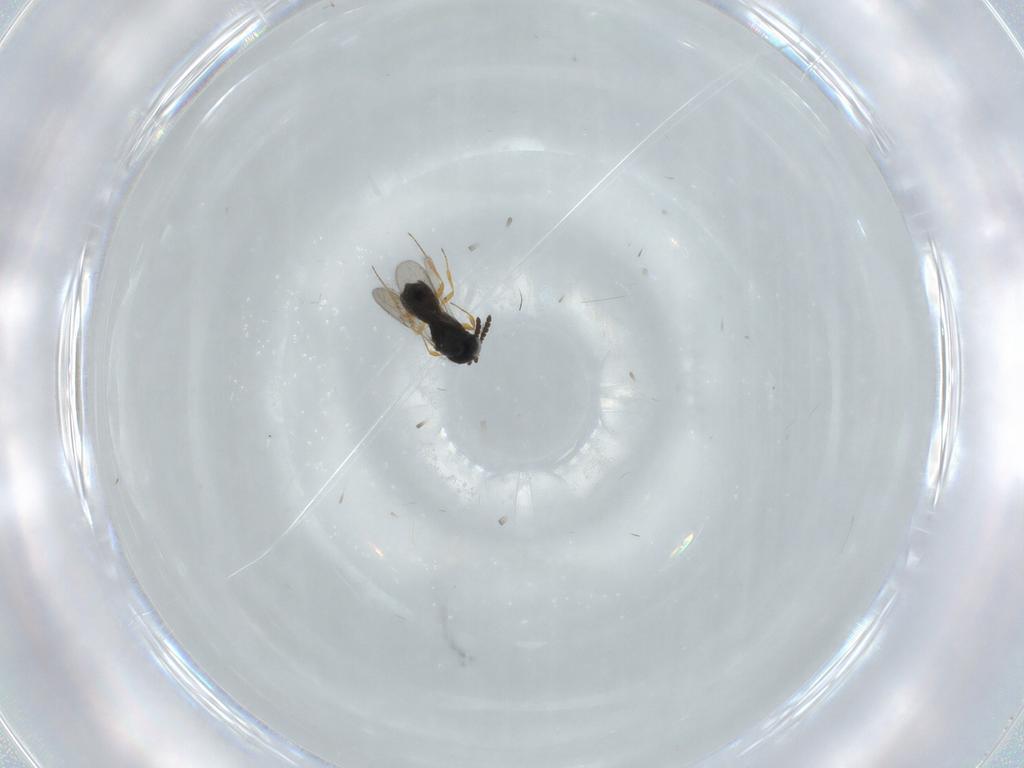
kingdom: Animalia
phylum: Arthropoda
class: Insecta
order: Hymenoptera
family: Scelionidae
